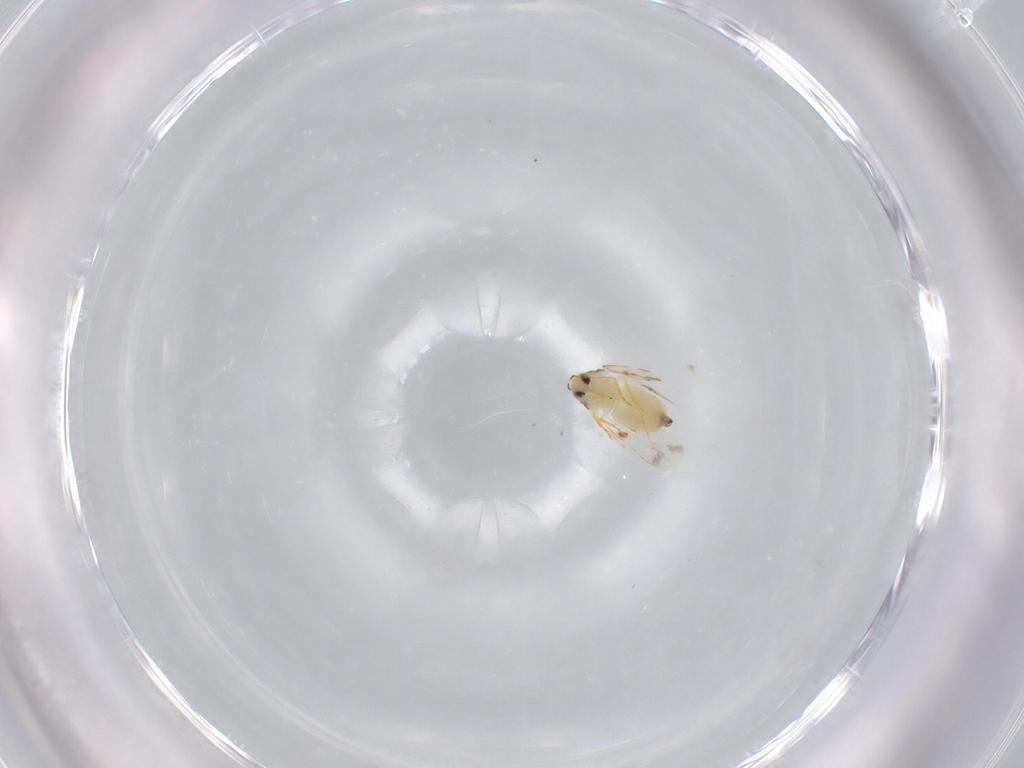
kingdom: Animalia
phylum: Arthropoda
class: Insecta
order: Hemiptera
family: Aleyrodidae
